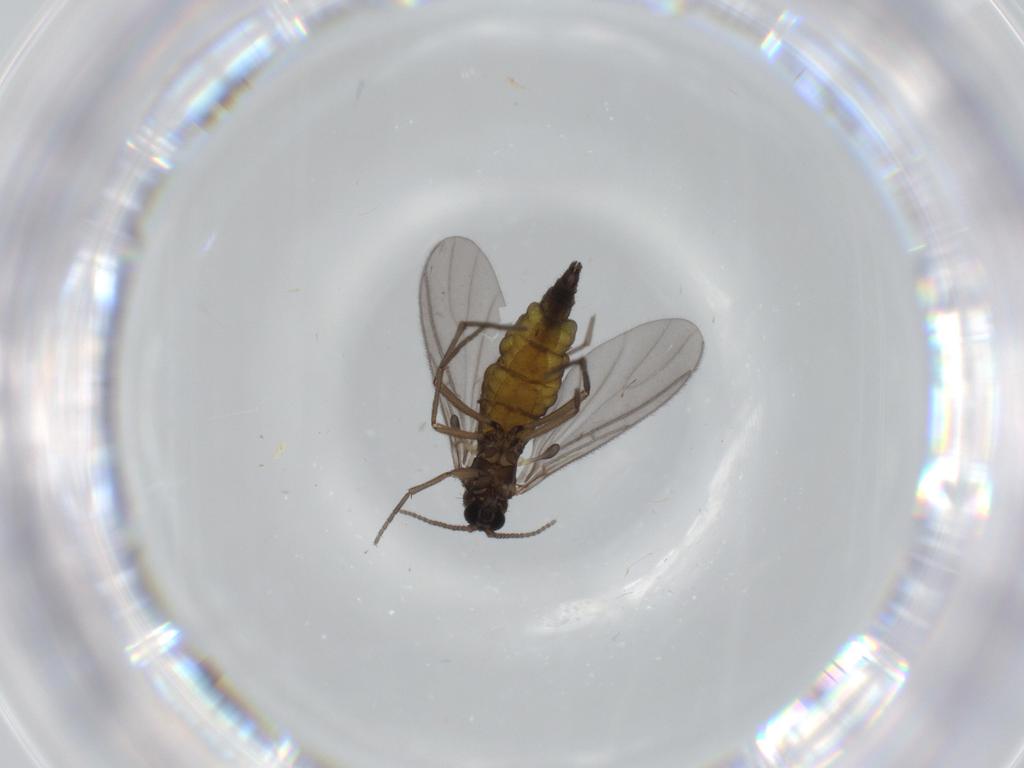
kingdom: Animalia
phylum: Arthropoda
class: Insecta
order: Diptera
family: Sciaridae
